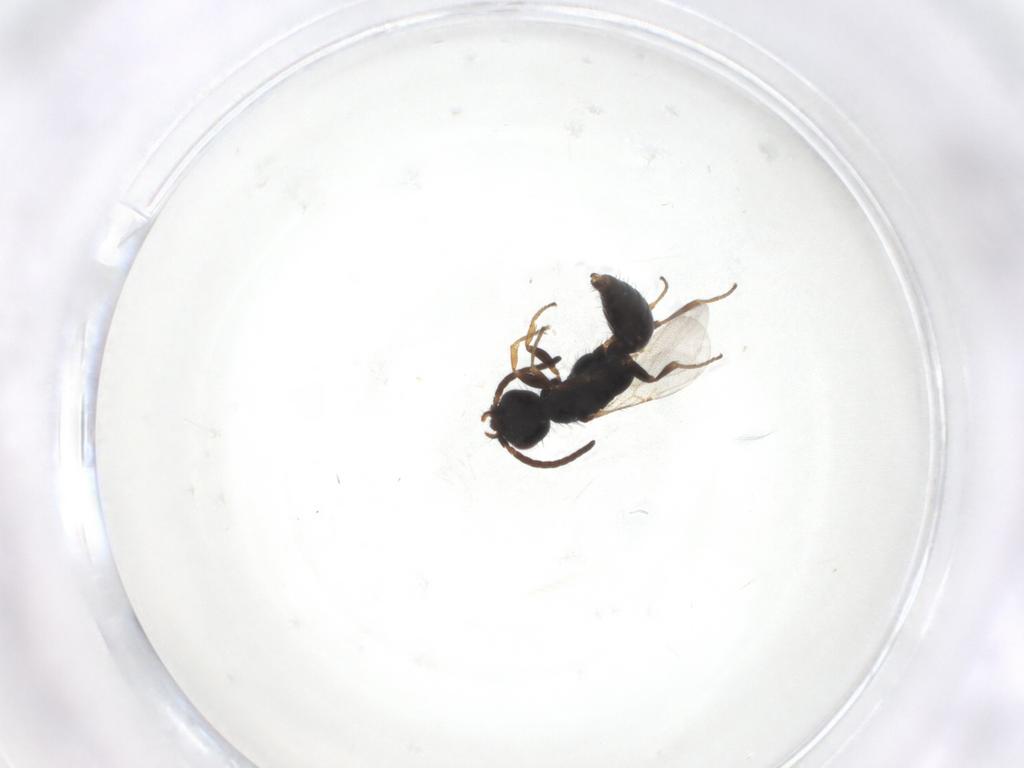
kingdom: Animalia
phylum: Arthropoda
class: Insecta
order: Hymenoptera
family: Bethylidae
